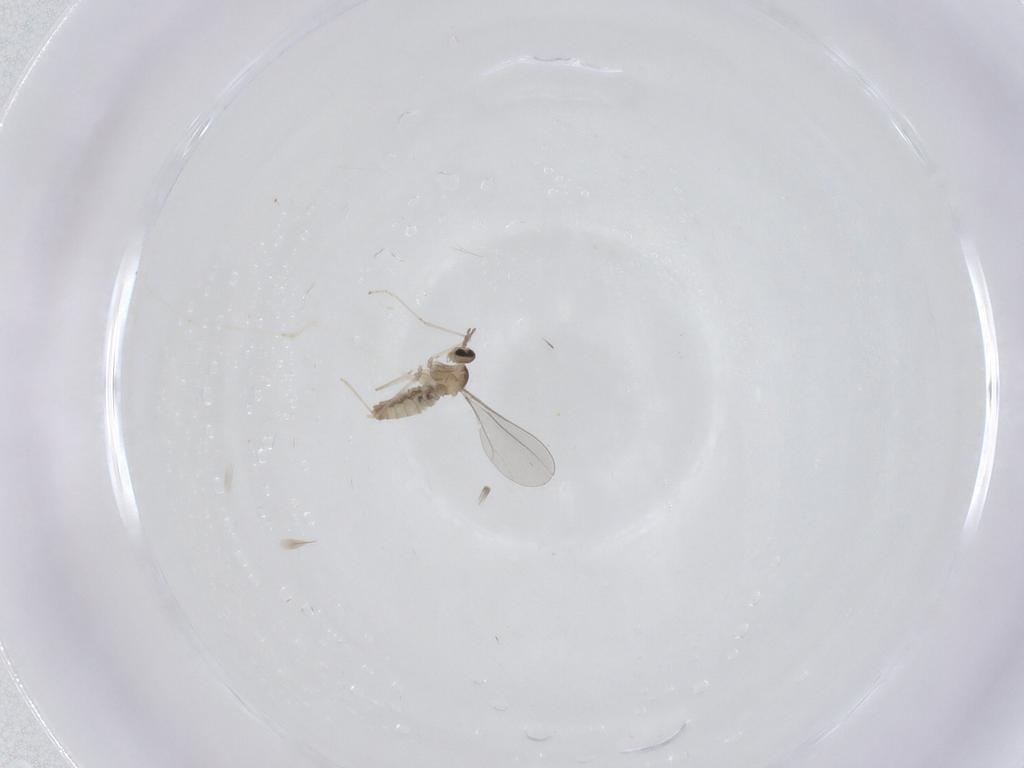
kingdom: Animalia
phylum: Arthropoda
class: Insecta
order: Diptera
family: Cecidomyiidae
